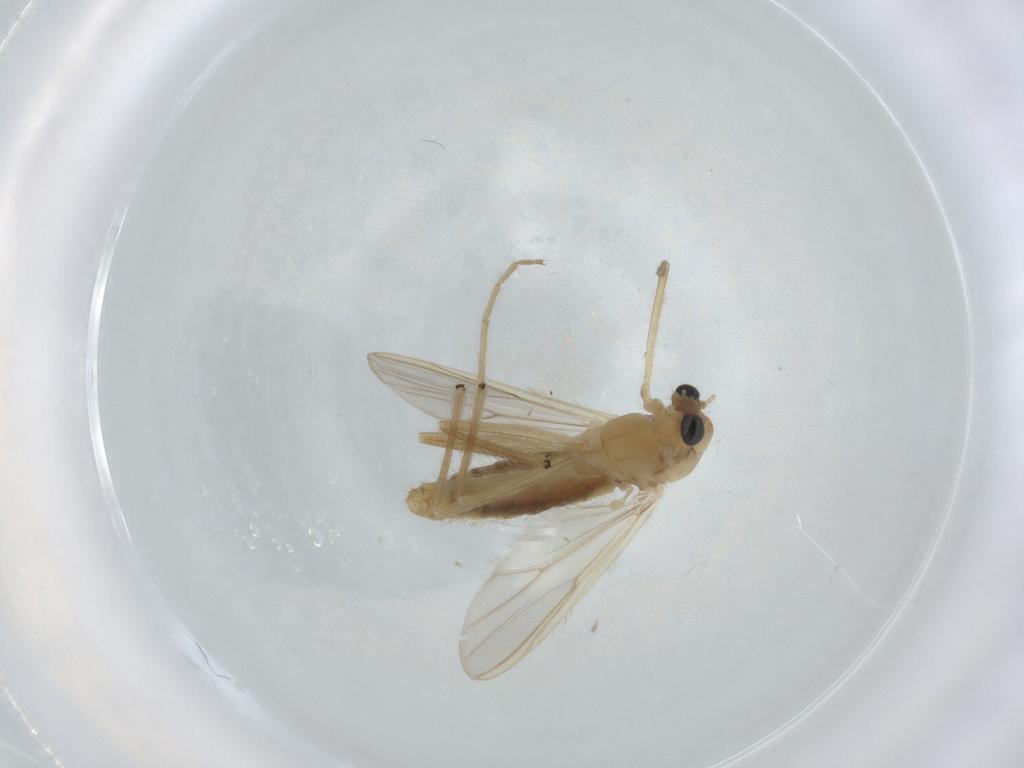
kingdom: Animalia
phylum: Arthropoda
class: Insecta
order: Diptera
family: Chironomidae
